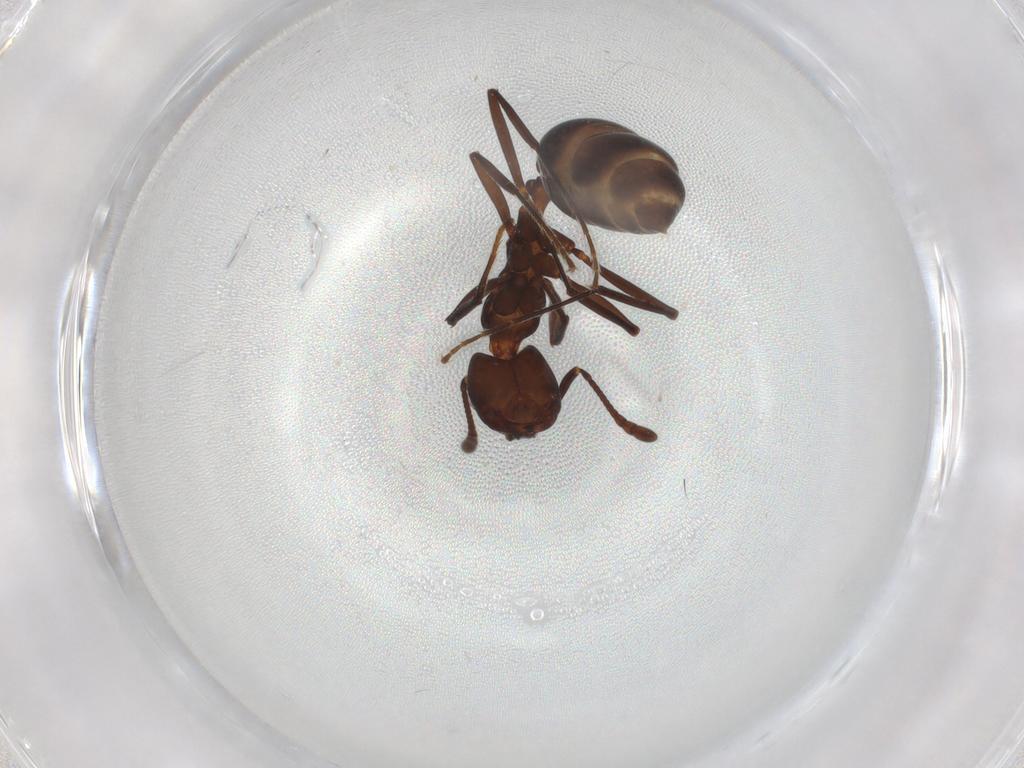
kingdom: Animalia
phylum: Arthropoda
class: Insecta
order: Hymenoptera
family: Formicidae
